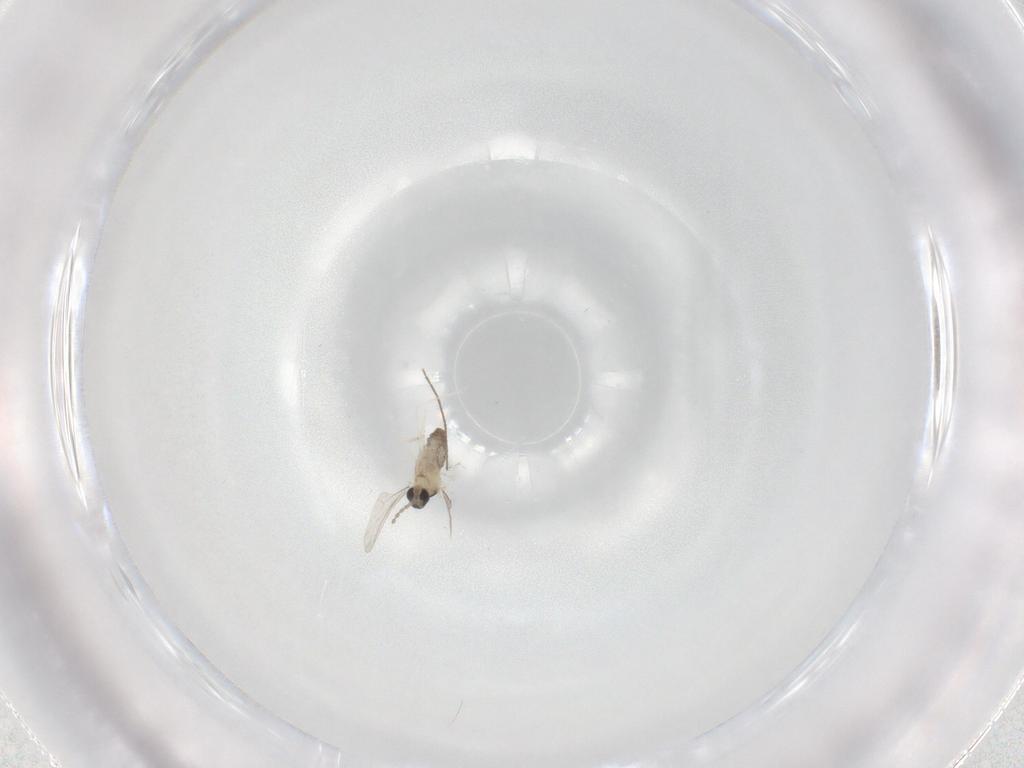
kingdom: Animalia
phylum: Arthropoda
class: Insecta
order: Diptera
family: Cecidomyiidae
